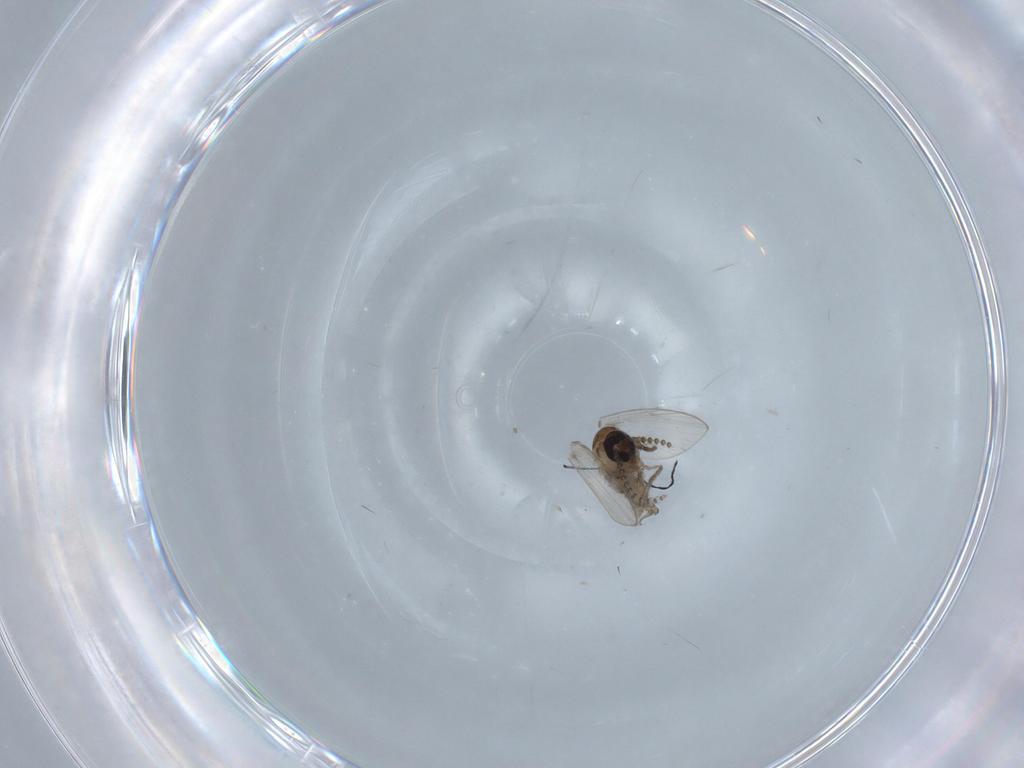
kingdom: Animalia
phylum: Arthropoda
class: Insecta
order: Diptera
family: Psychodidae
